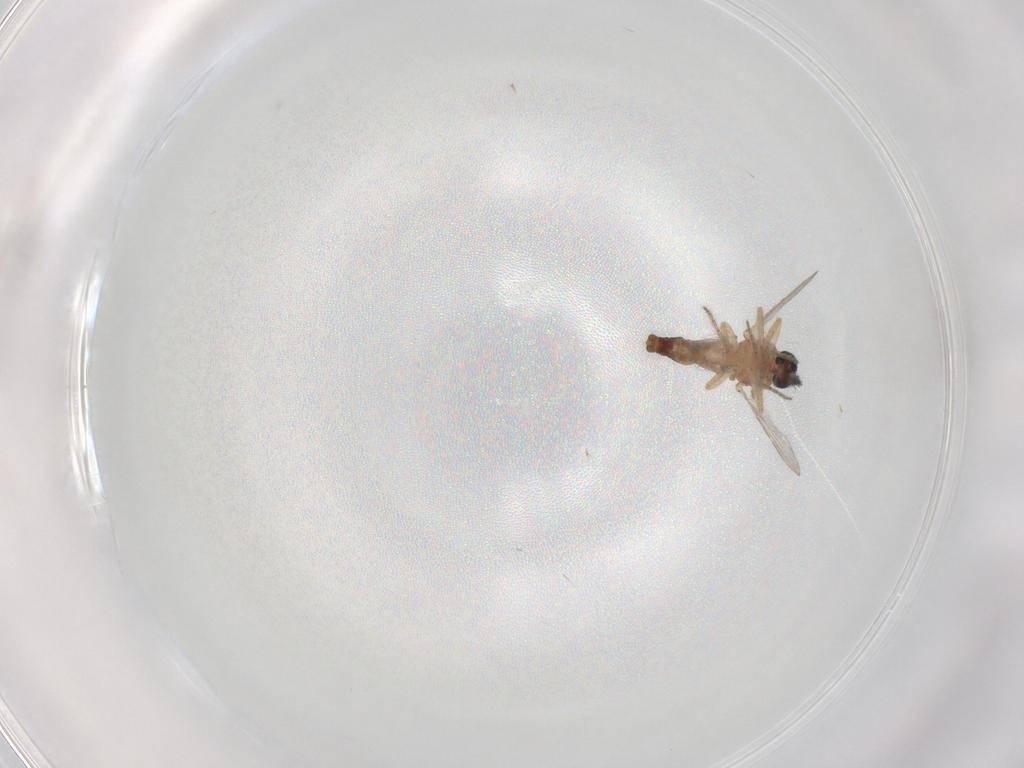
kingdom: Animalia
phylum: Arthropoda
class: Insecta
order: Diptera
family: Ceratopogonidae
